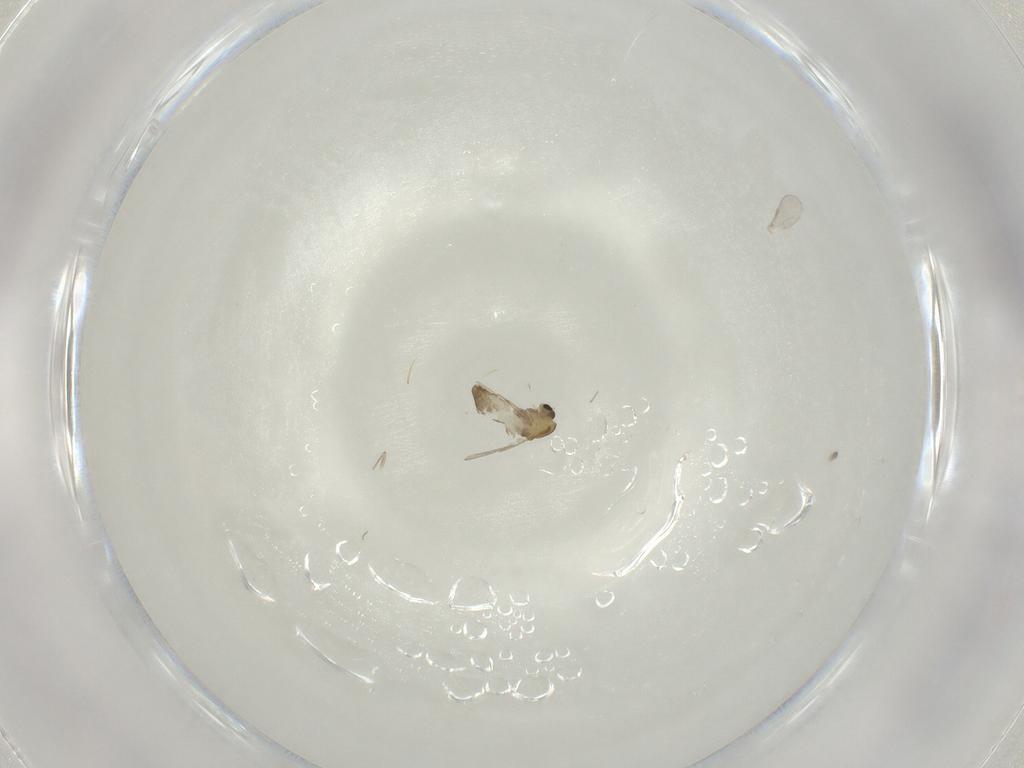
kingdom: Animalia
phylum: Arthropoda
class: Insecta
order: Diptera
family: Chironomidae
